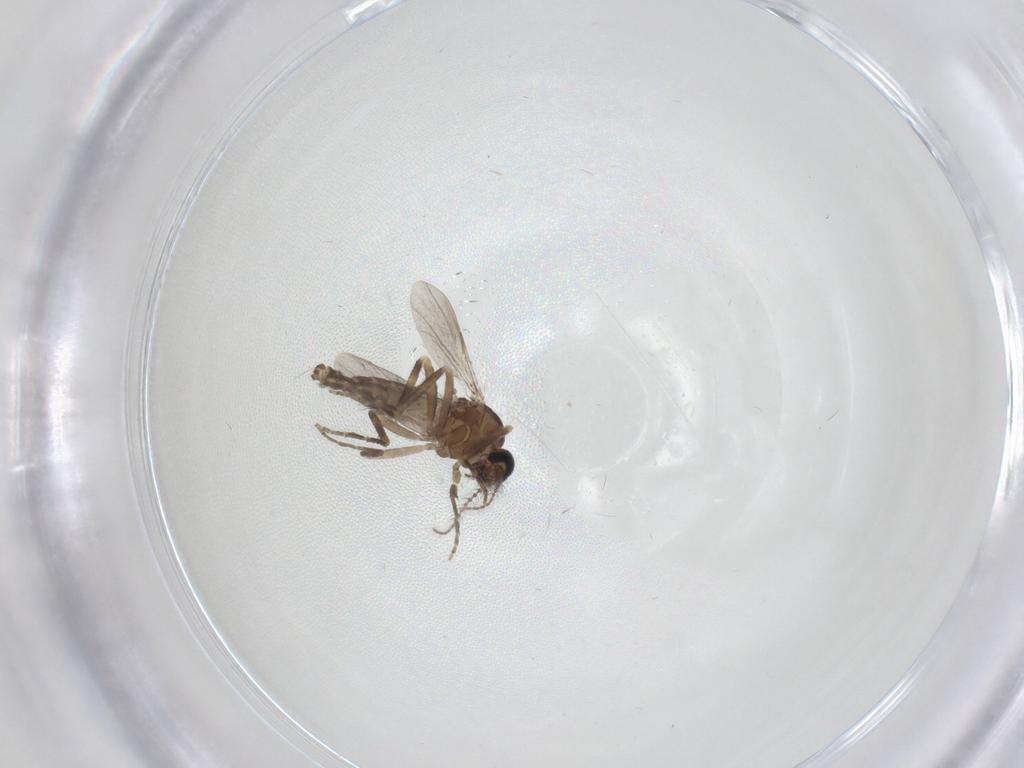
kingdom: Animalia
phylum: Arthropoda
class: Insecta
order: Diptera
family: Ceratopogonidae
